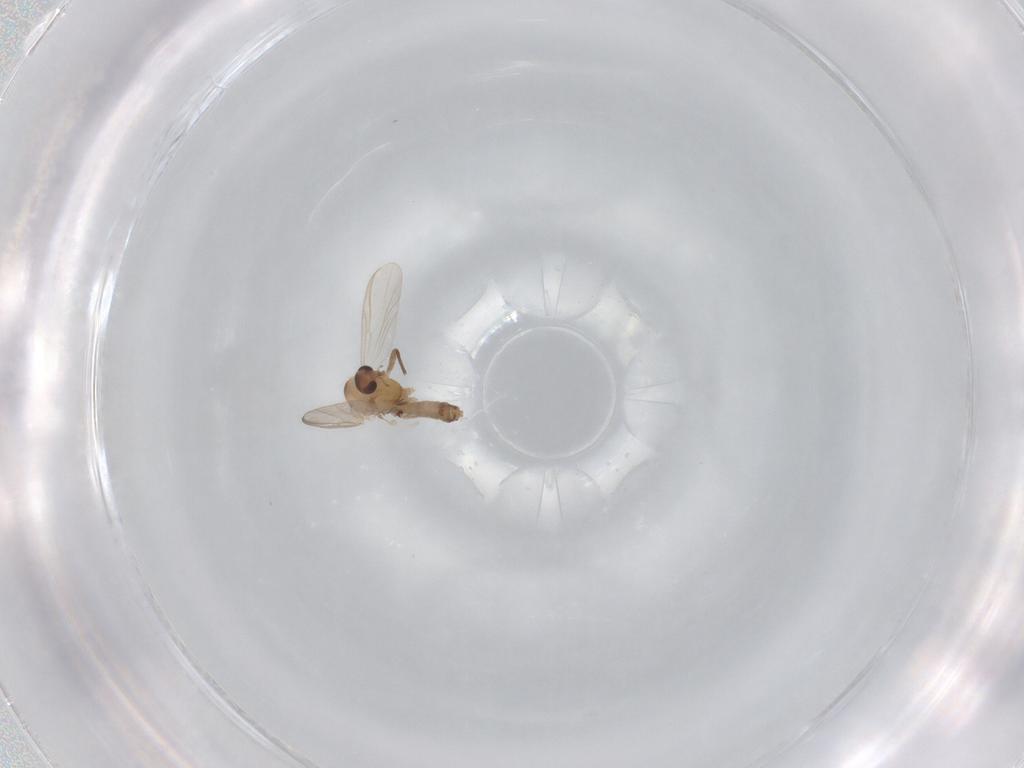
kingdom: Animalia
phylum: Arthropoda
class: Insecta
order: Diptera
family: Chironomidae
